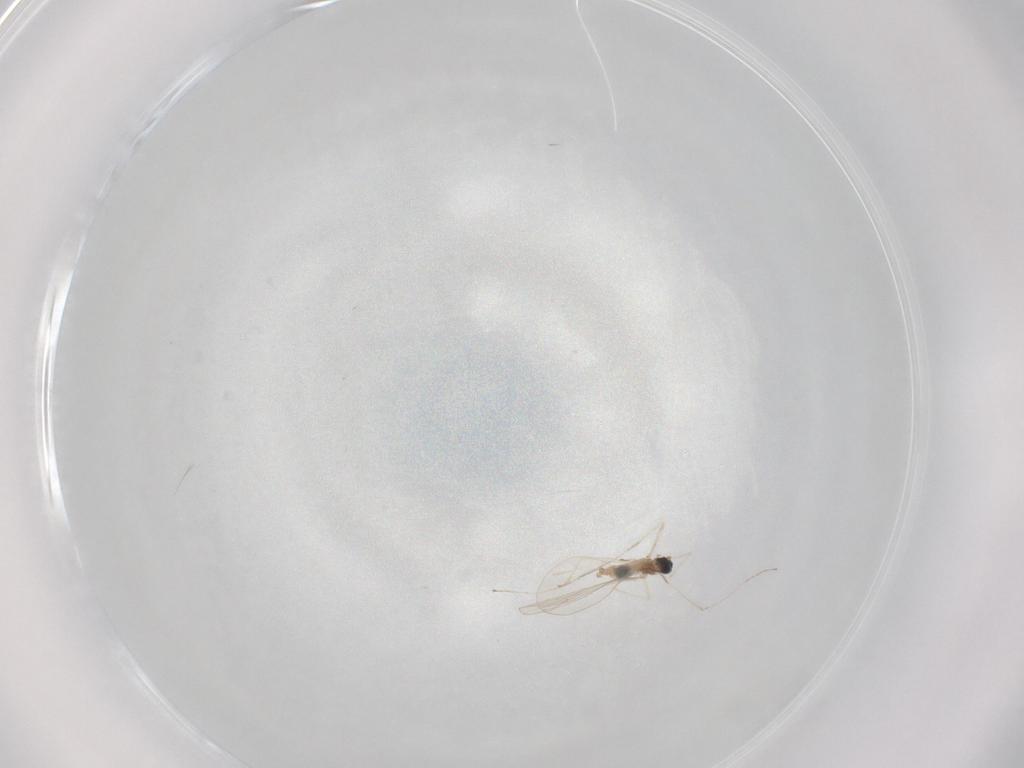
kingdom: Animalia
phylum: Arthropoda
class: Insecta
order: Diptera
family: Cecidomyiidae
